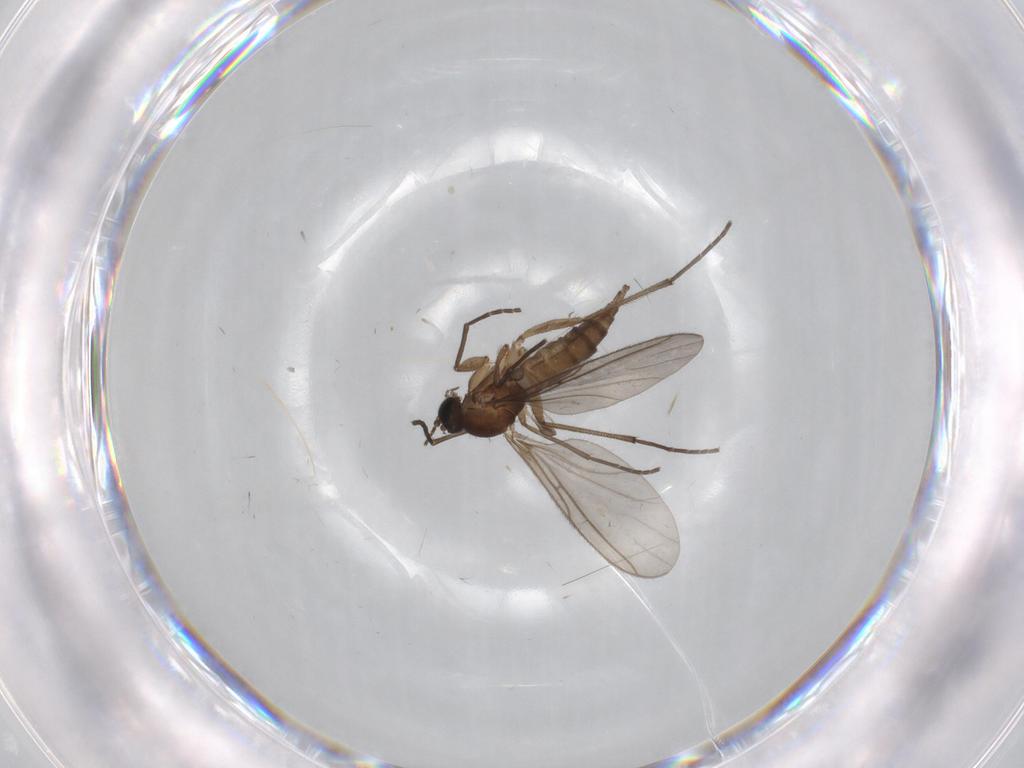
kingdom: Animalia
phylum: Arthropoda
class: Insecta
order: Diptera
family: Sciaridae
